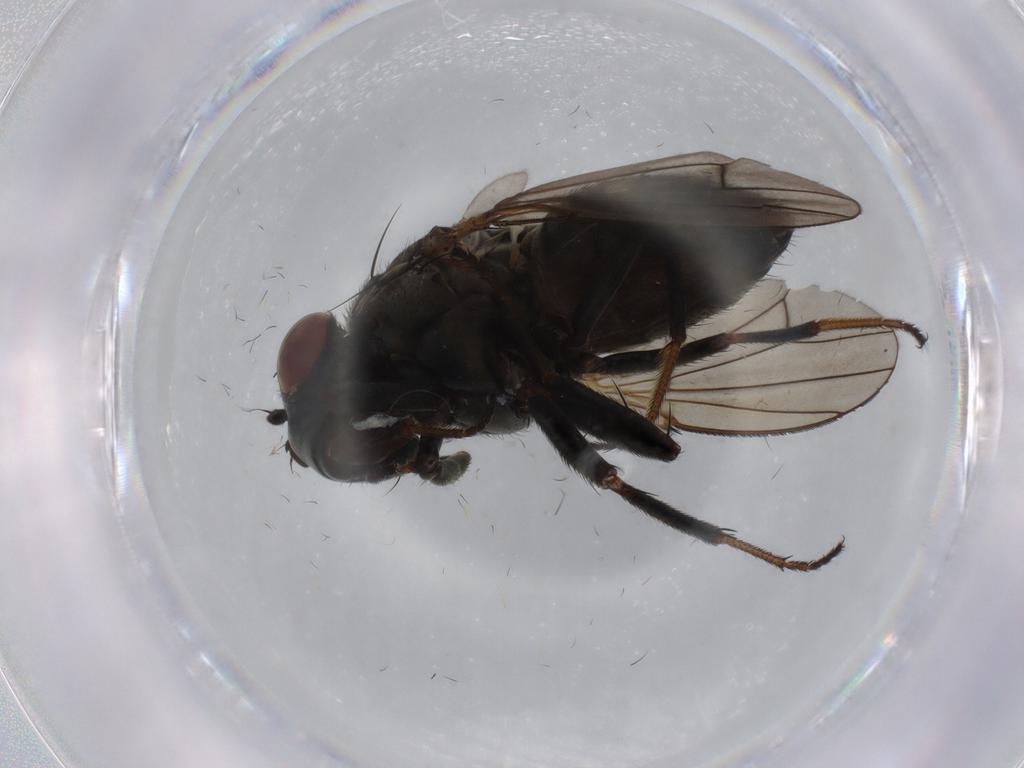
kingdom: Animalia
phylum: Arthropoda
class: Insecta
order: Diptera
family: Ephydridae
